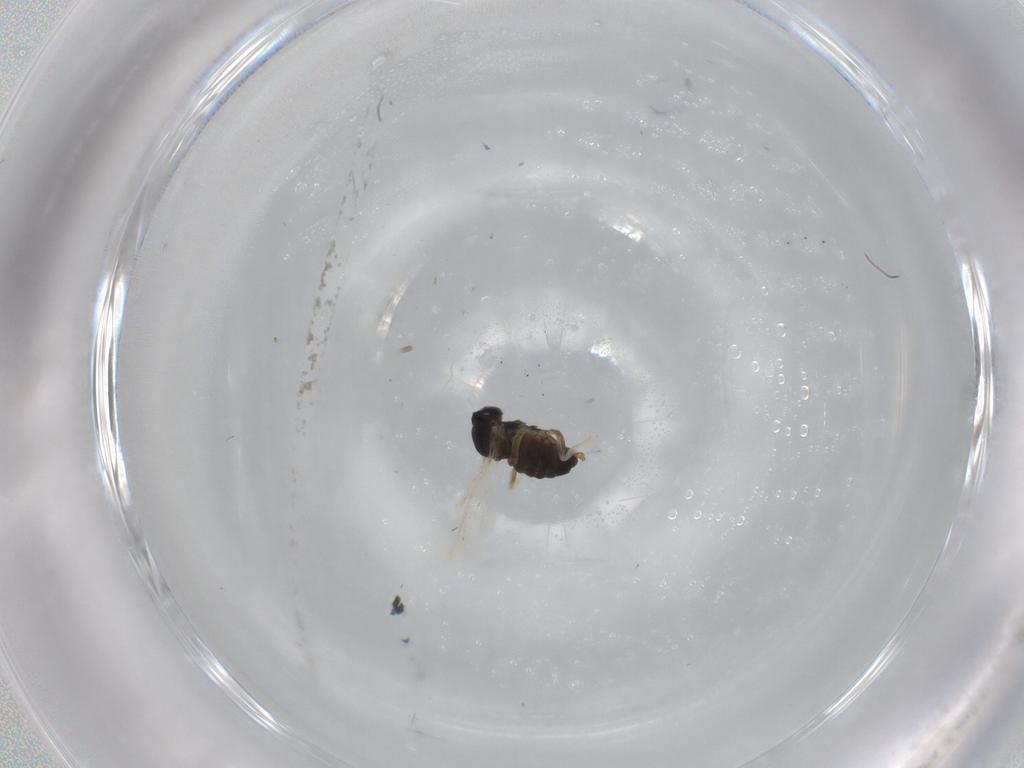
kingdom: Animalia
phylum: Arthropoda
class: Insecta
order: Diptera
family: Cecidomyiidae
